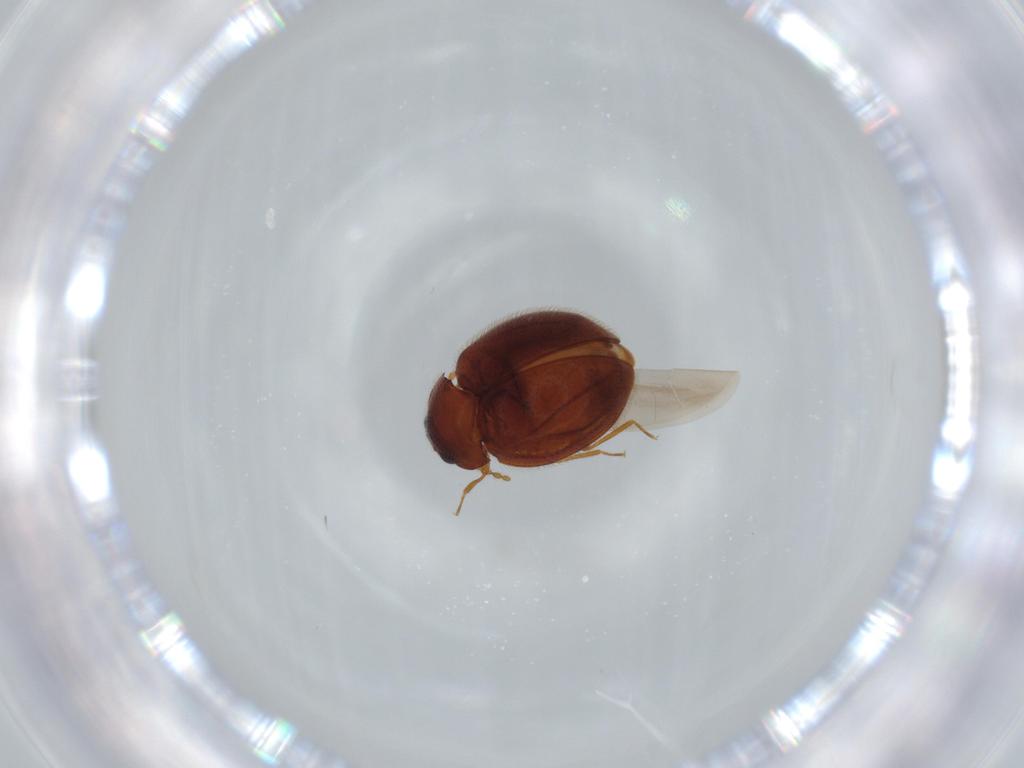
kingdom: Animalia
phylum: Arthropoda
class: Insecta
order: Coleoptera
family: Anamorphidae
